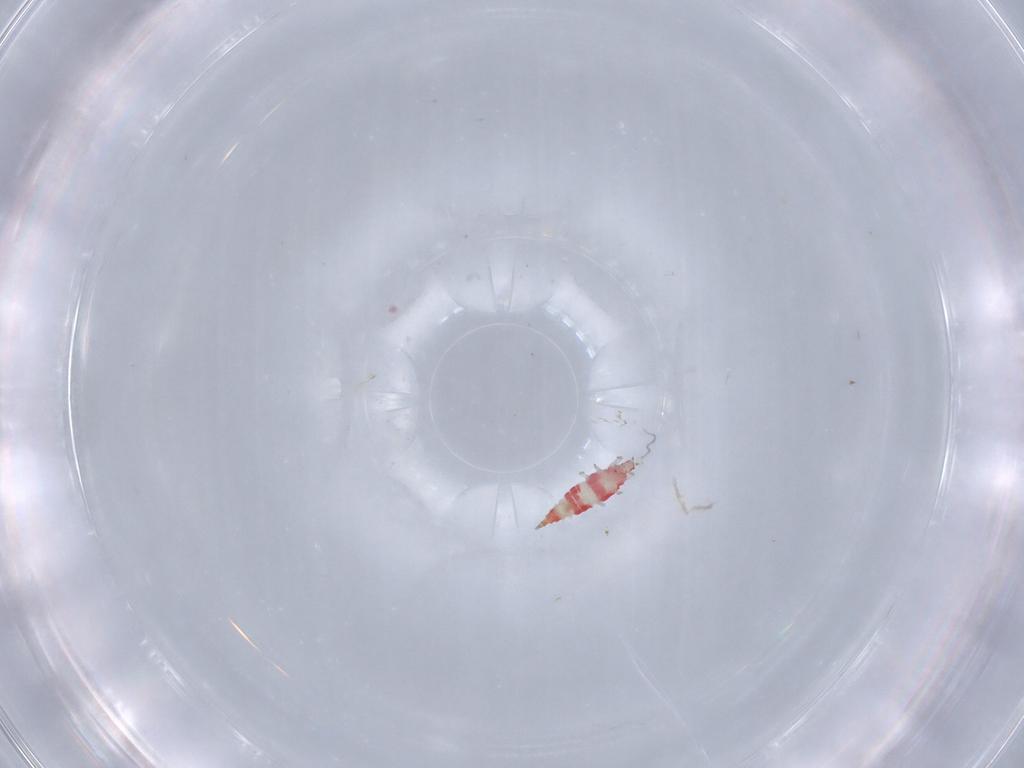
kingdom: Animalia
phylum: Arthropoda
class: Insecta
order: Thysanoptera
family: Phlaeothripidae
